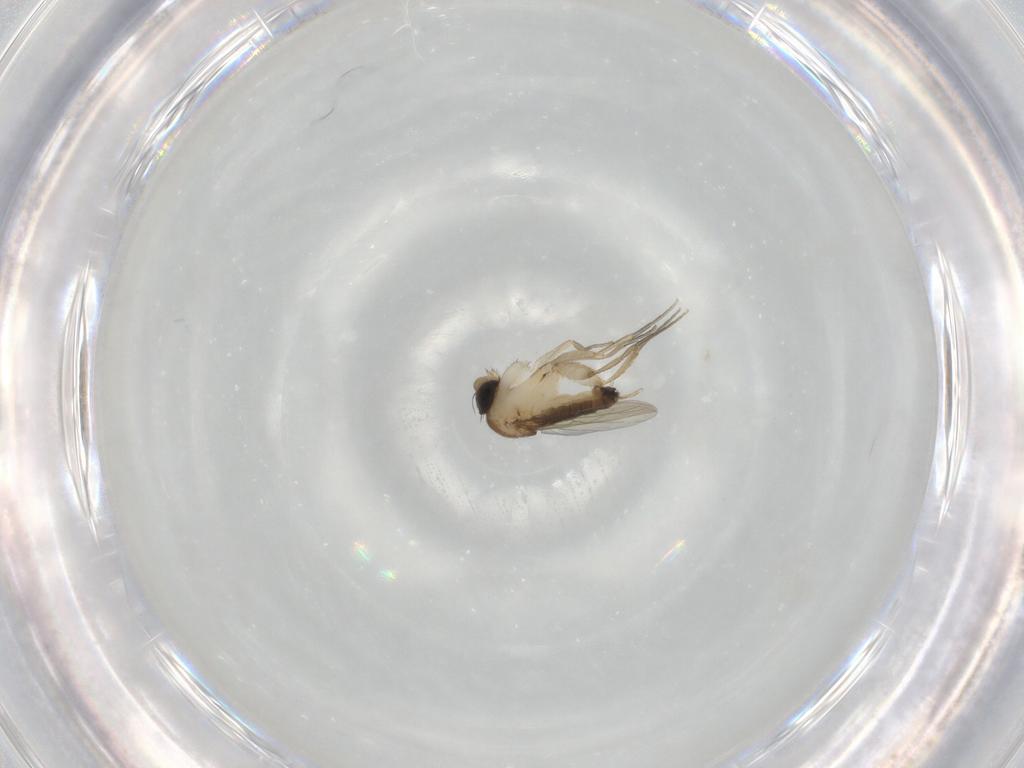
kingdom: Animalia
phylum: Arthropoda
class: Insecta
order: Diptera
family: Phoridae
